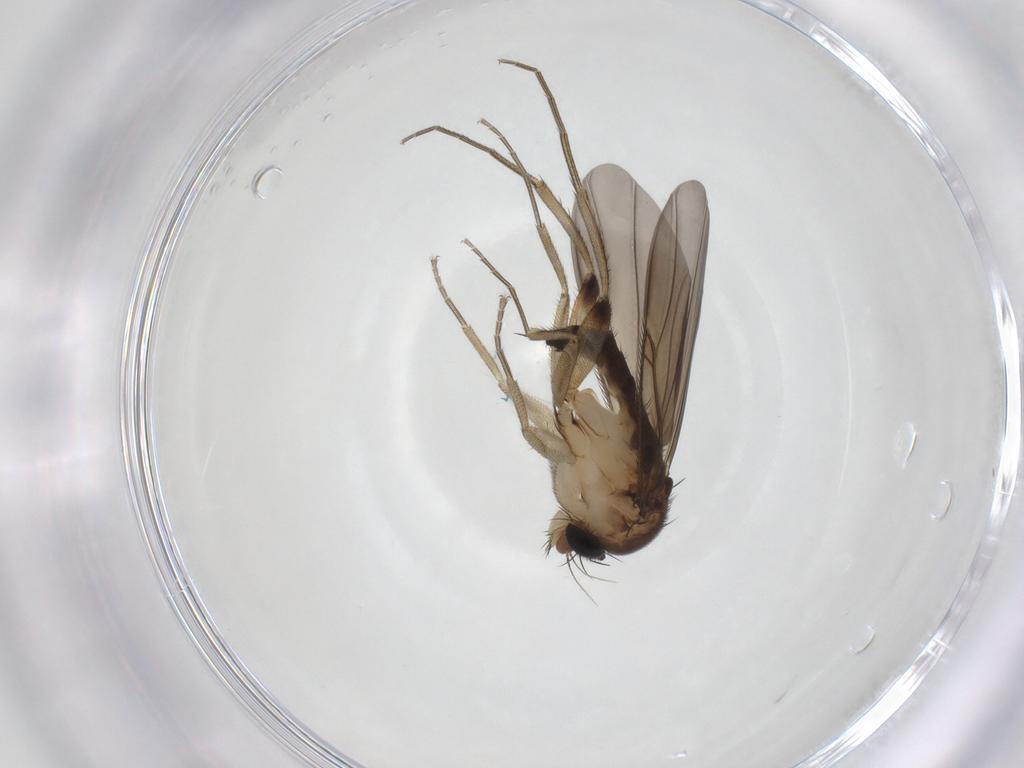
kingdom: Animalia
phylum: Arthropoda
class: Insecta
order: Diptera
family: Phoridae
